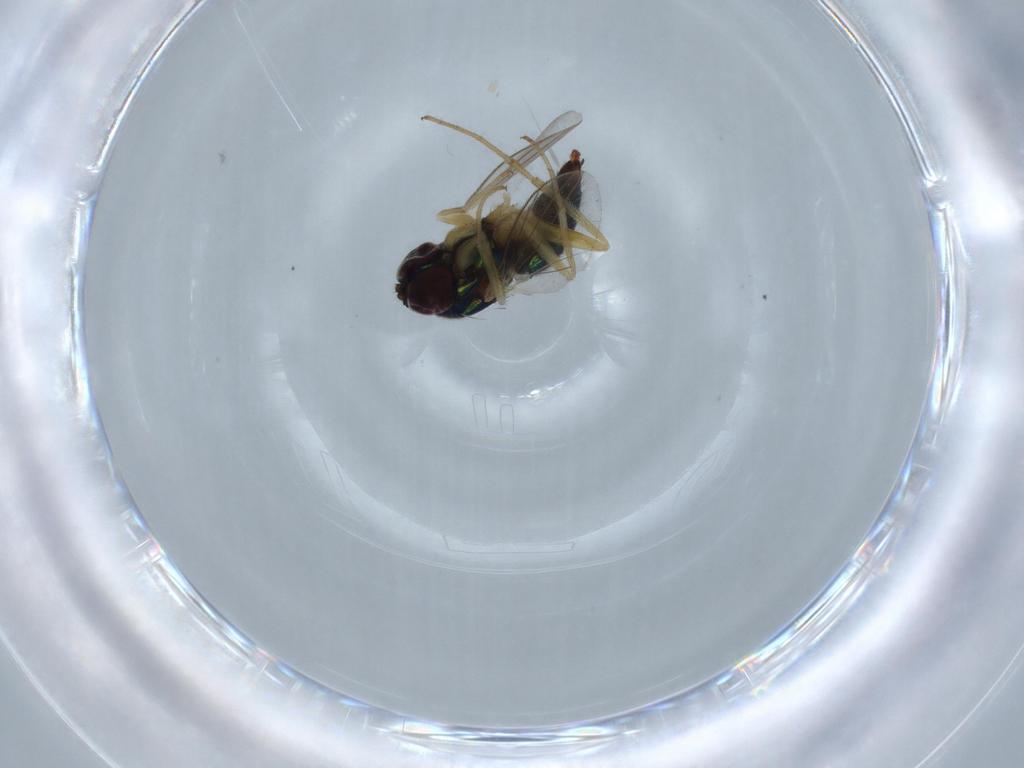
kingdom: Animalia
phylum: Arthropoda
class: Insecta
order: Diptera
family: Dolichopodidae
